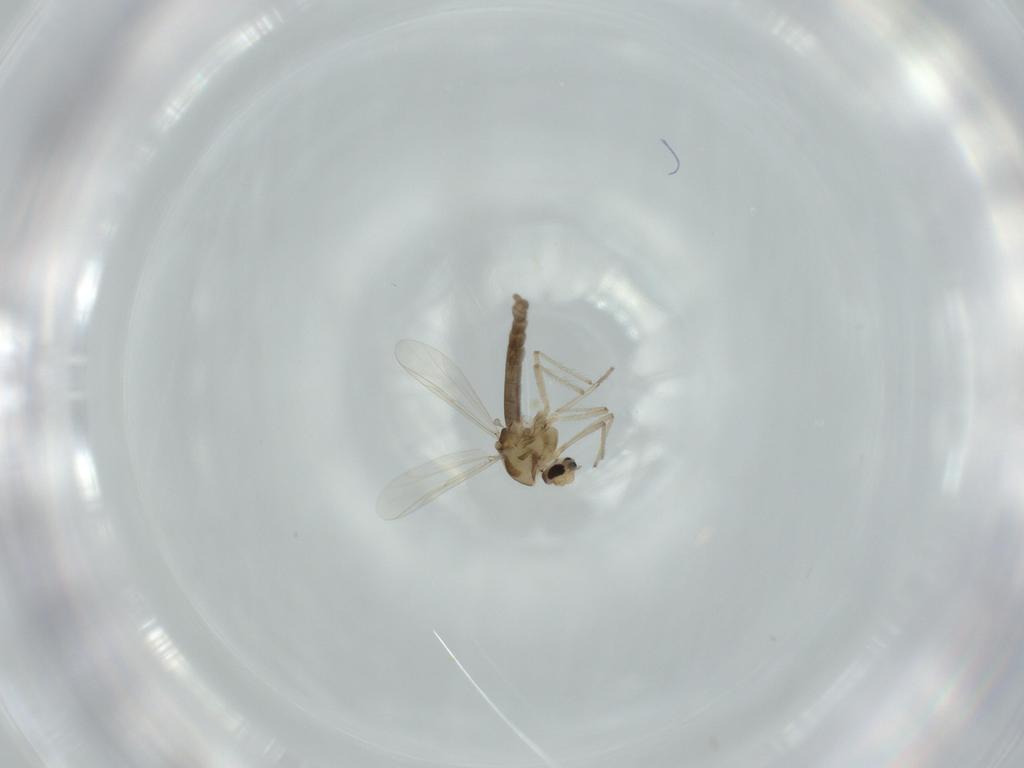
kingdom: Animalia
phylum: Arthropoda
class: Insecta
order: Diptera
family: Chironomidae
